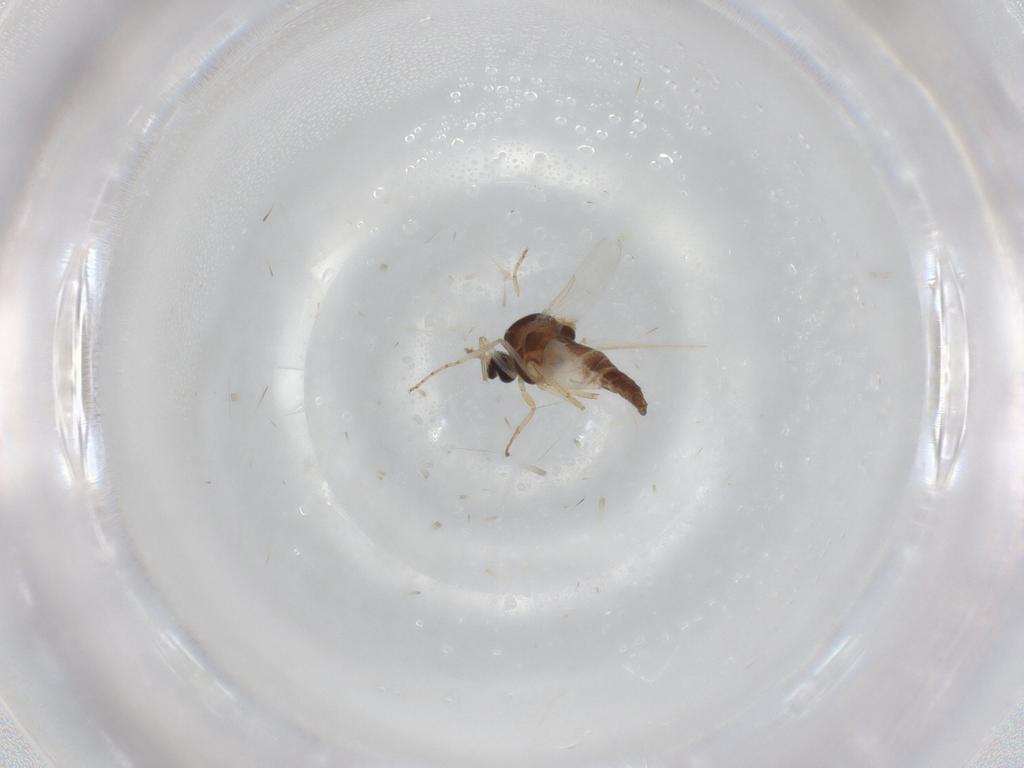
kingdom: Animalia
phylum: Arthropoda
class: Insecta
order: Diptera
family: Ceratopogonidae
